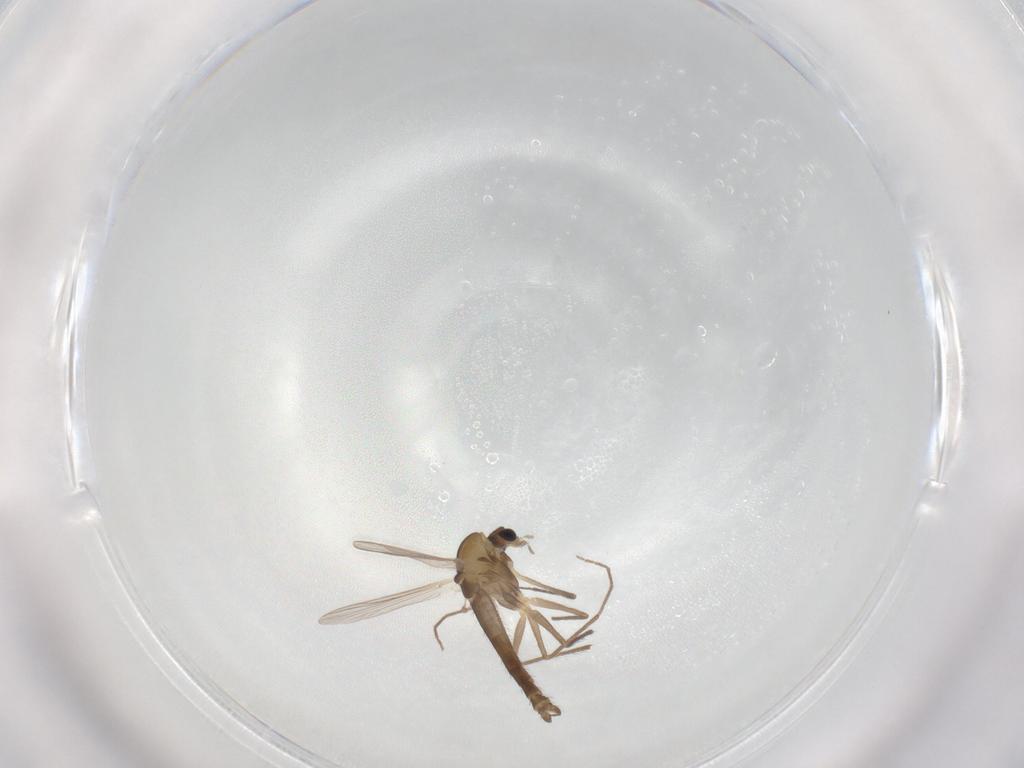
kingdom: Animalia
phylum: Arthropoda
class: Insecta
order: Diptera
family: Chironomidae
